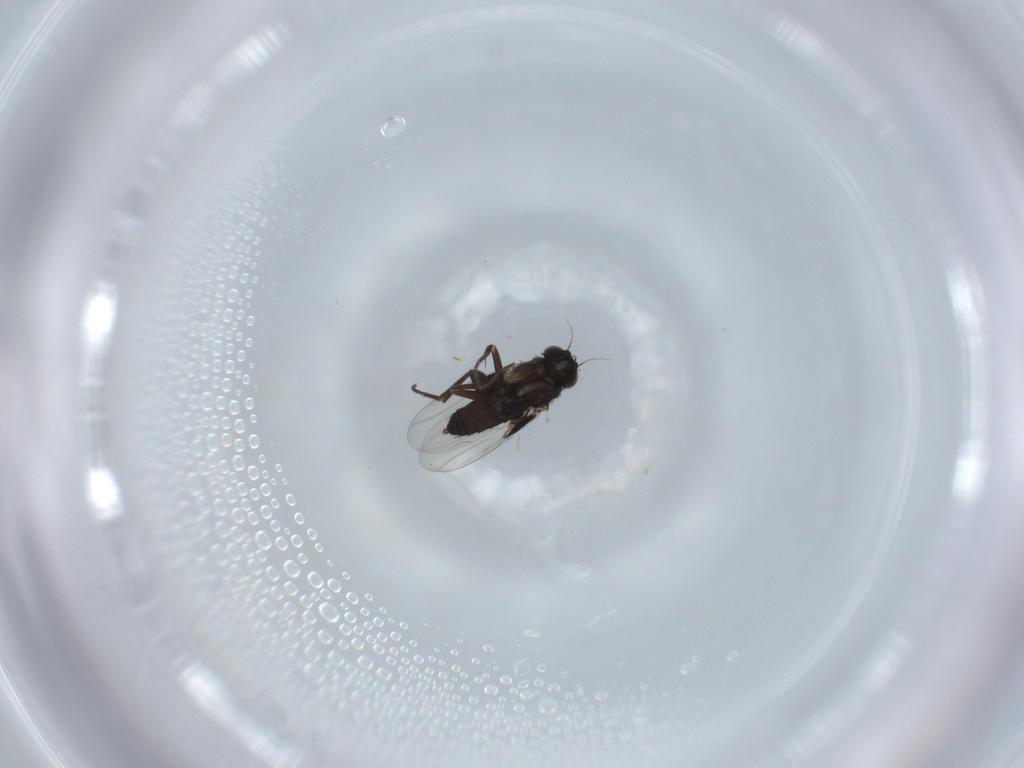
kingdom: Animalia
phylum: Arthropoda
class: Insecta
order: Diptera
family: Phoridae
